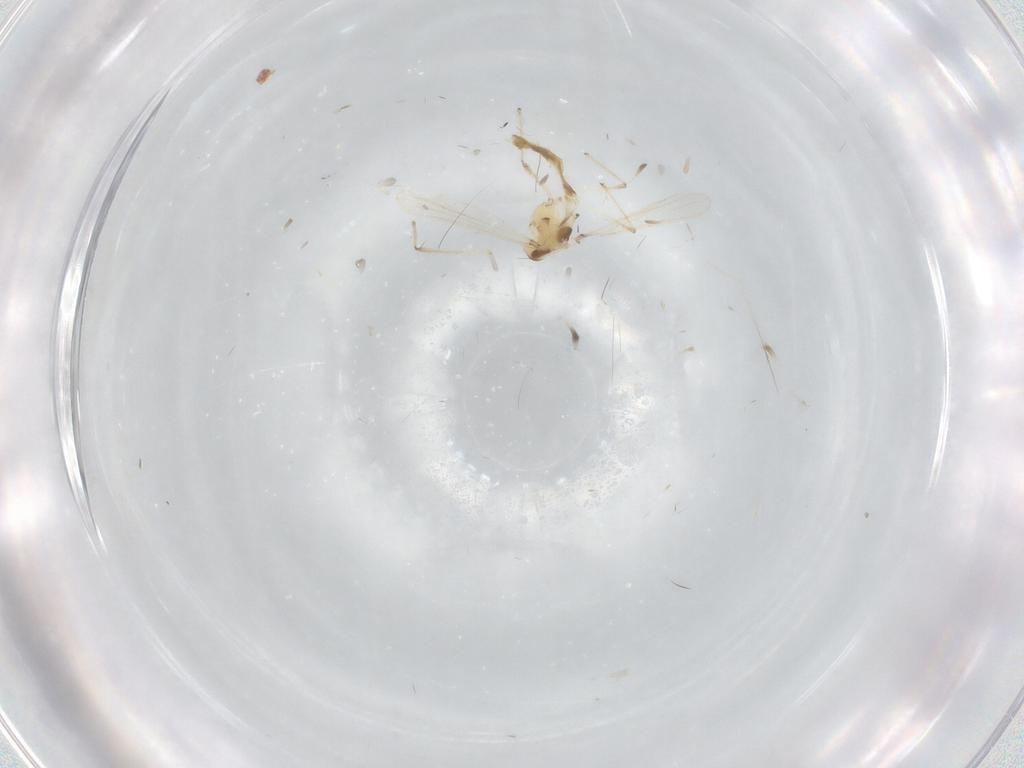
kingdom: Animalia
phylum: Arthropoda
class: Insecta
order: Diptera
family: Chironomidae
